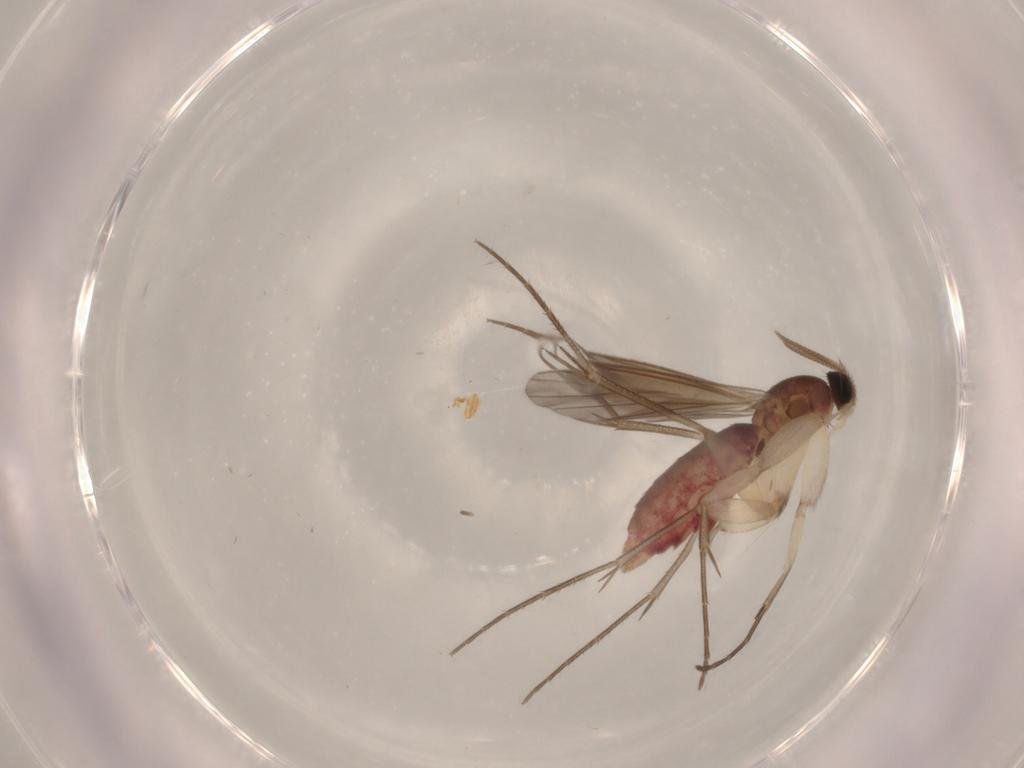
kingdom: Animalia
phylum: Arthropoda
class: Insecta
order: Diptera
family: Mycetophilidae
